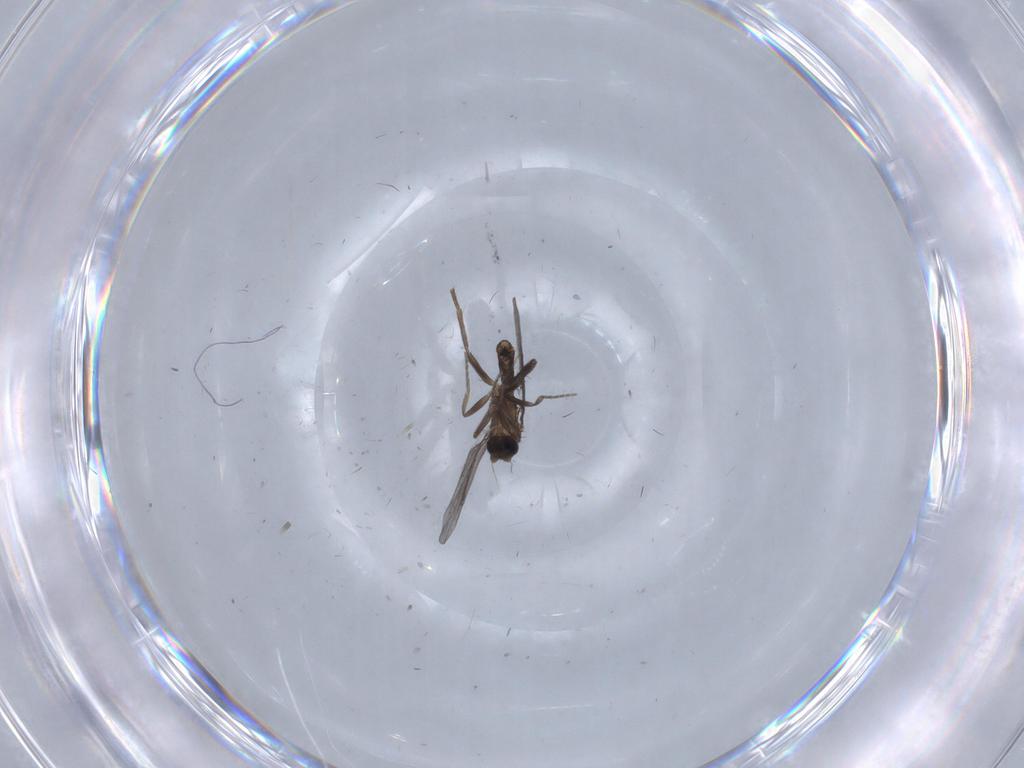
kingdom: Animalia
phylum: Arthropoda
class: Insecta
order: Diptera
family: Phoridae
